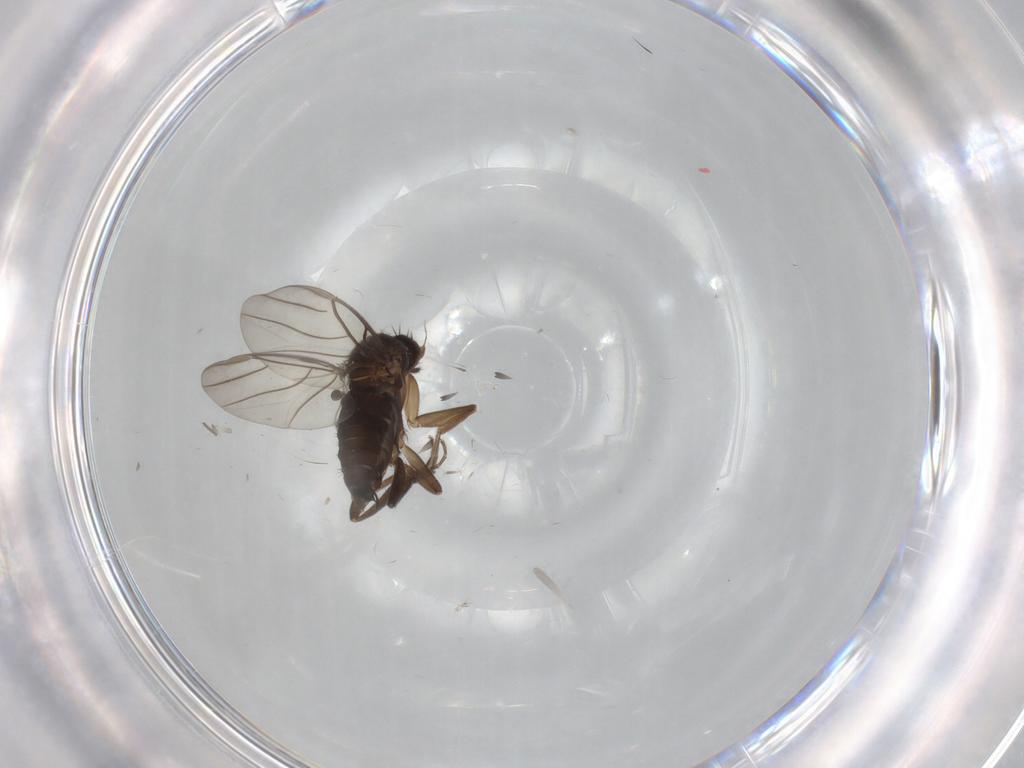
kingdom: Animalia
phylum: Arthropoda
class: Insecta
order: Diptera
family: Cecidomyiidae
